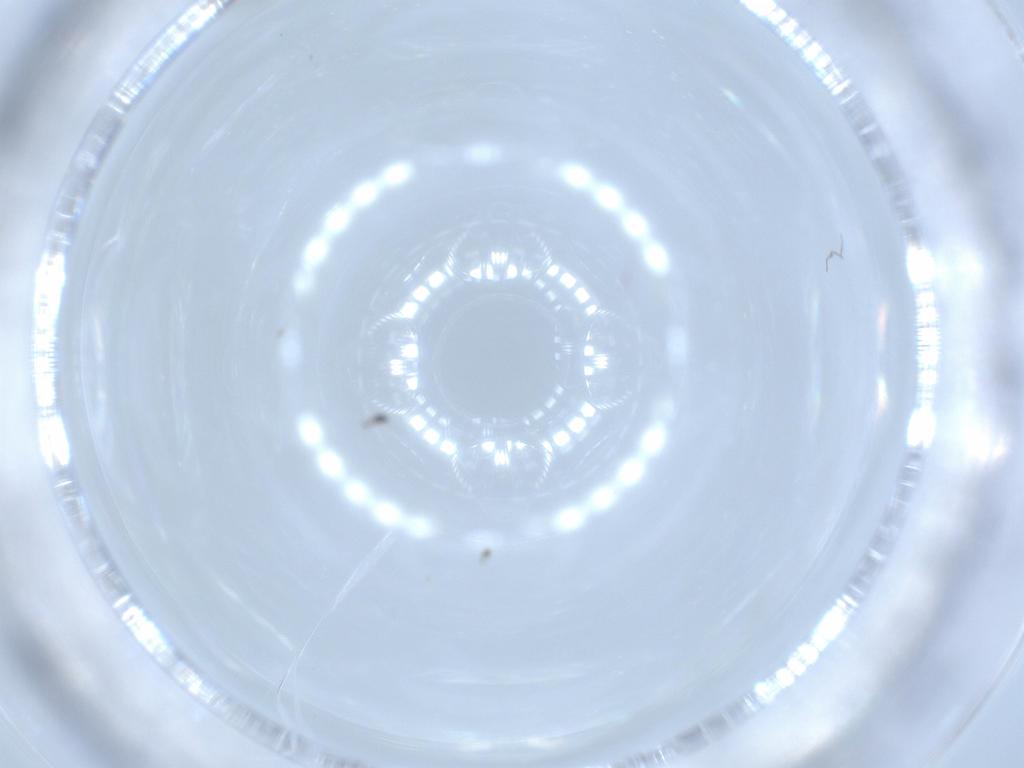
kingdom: Animalia
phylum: Arthropoda
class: Insecta
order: Diptera
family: Cecidomyiidae
